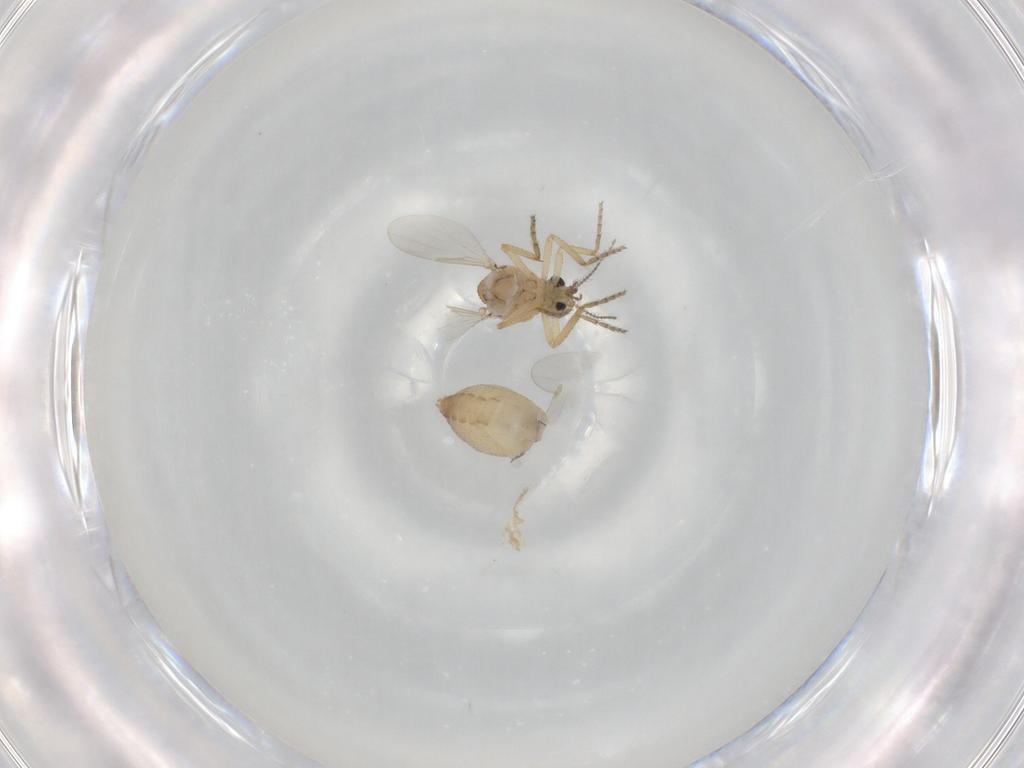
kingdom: Animalia
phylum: Arthropoda
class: Insecta
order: Diptera
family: Ceratopogonidae
